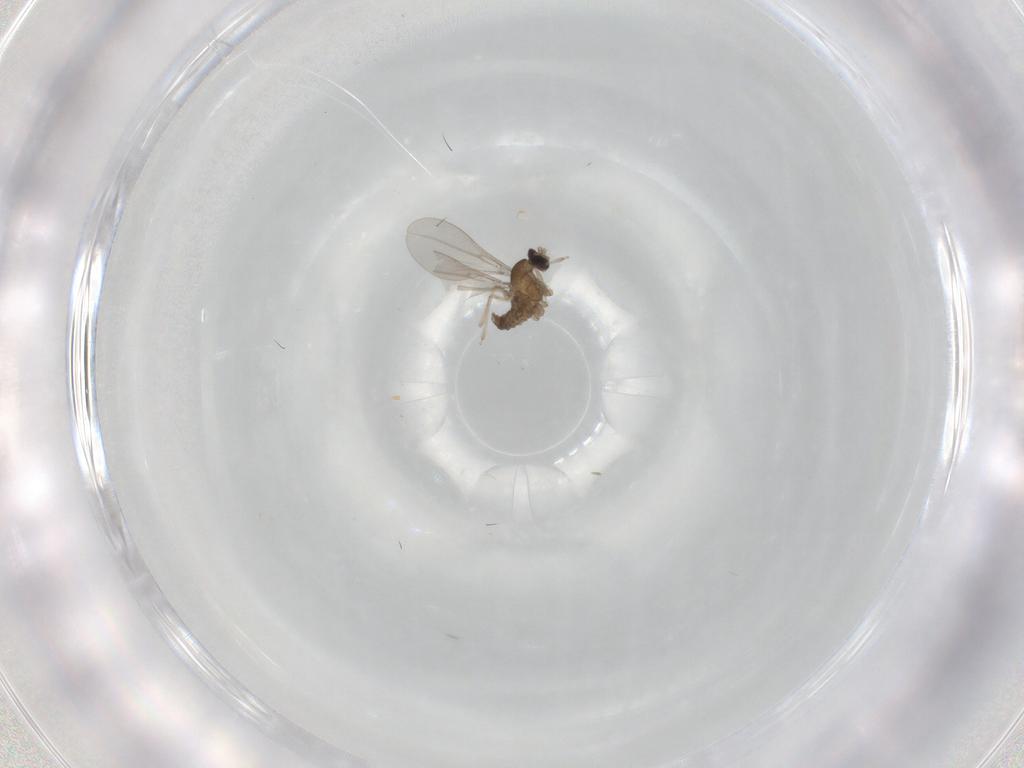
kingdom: Animalia
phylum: Arthropoda
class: Insecta
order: Diptera
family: Cecidomyiidae
